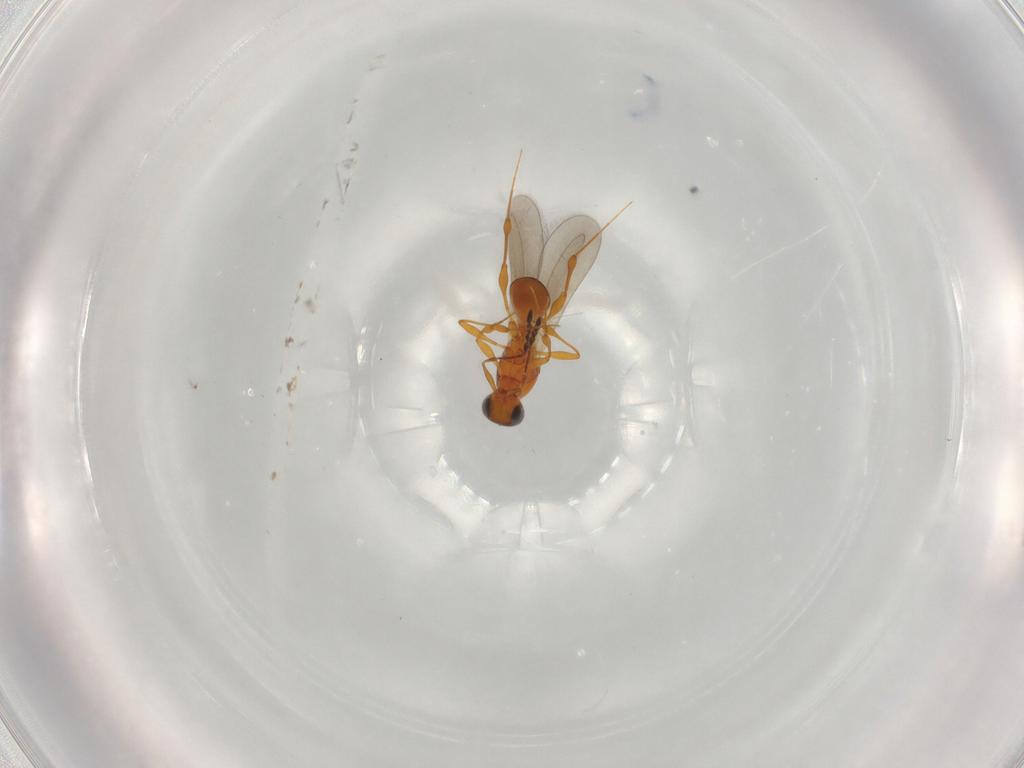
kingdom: Animalia
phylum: Arthropoda
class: Insecta
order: Hymenoptera
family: Platygastridae
